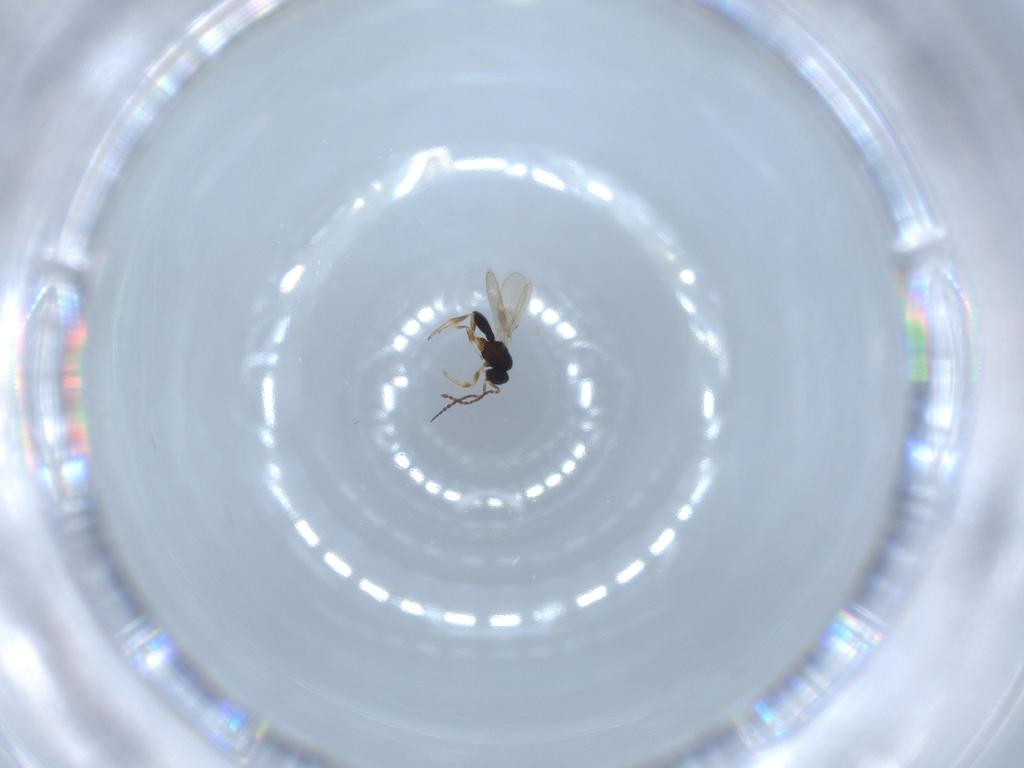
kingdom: Animalia
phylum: Arthropoda
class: Insecta
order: Hymenoptera
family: Scelionidae
